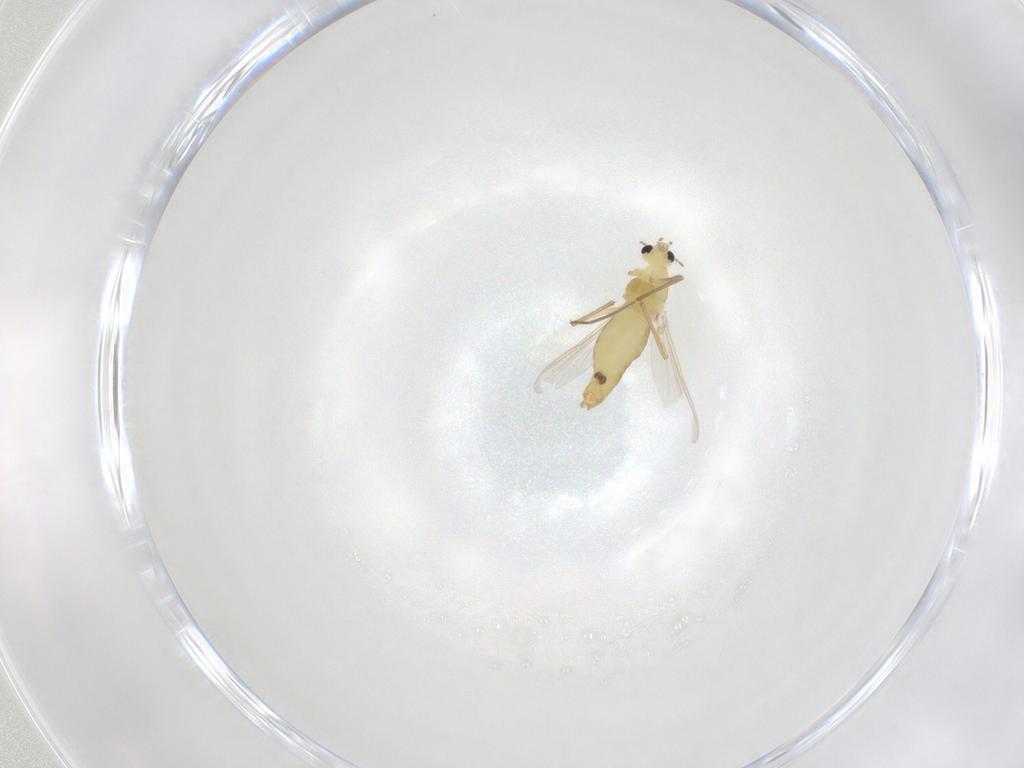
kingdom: Animalia
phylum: Arthropoda
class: Insecta
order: Diptera
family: Chironomidae
